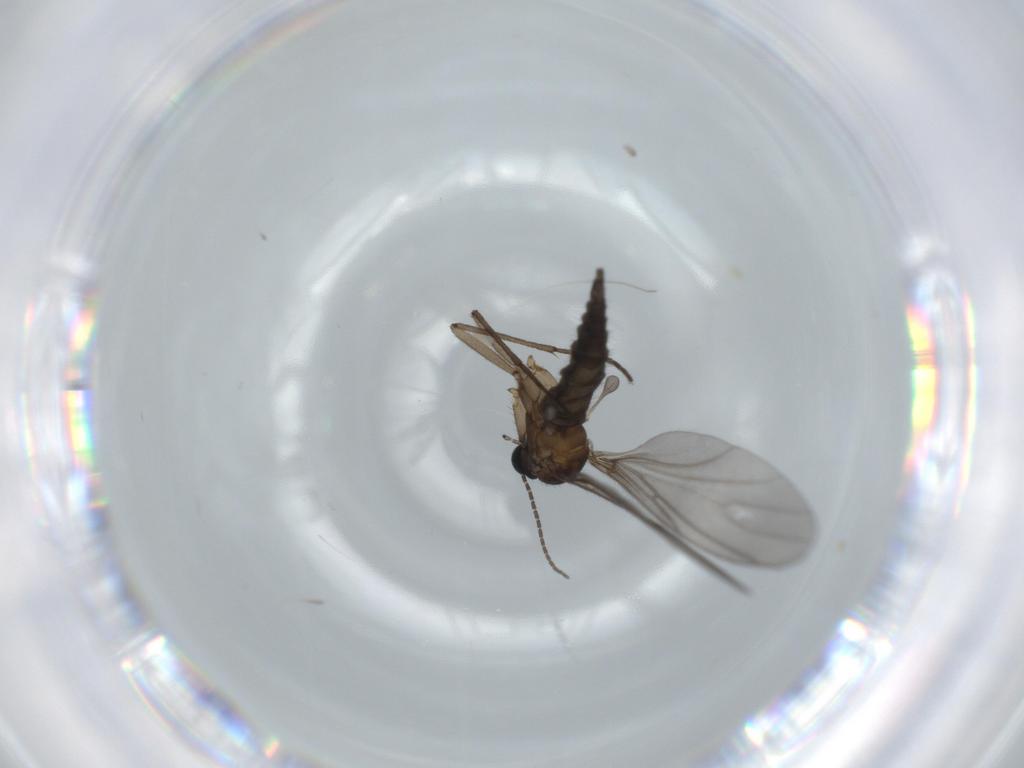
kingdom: Animalia
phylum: Arthropoda
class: Insecta
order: Diptera
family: Sciaridae
